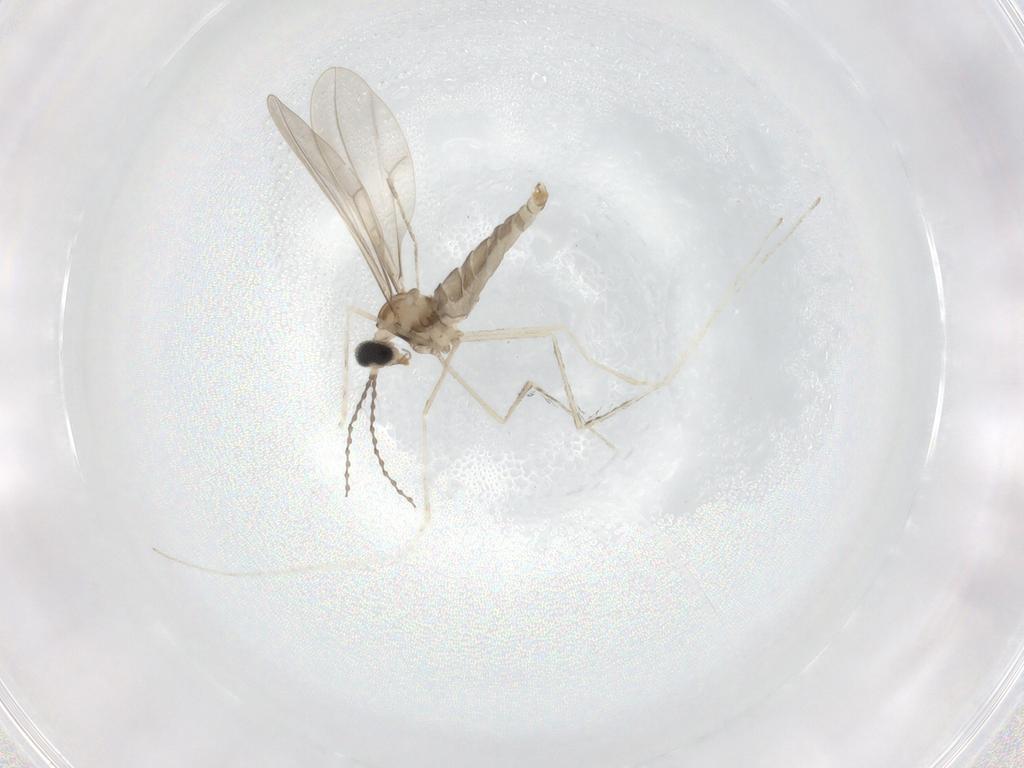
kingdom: Animalia
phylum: Arthropoda
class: Insecta
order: Diptera
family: Cecidomyiidae
